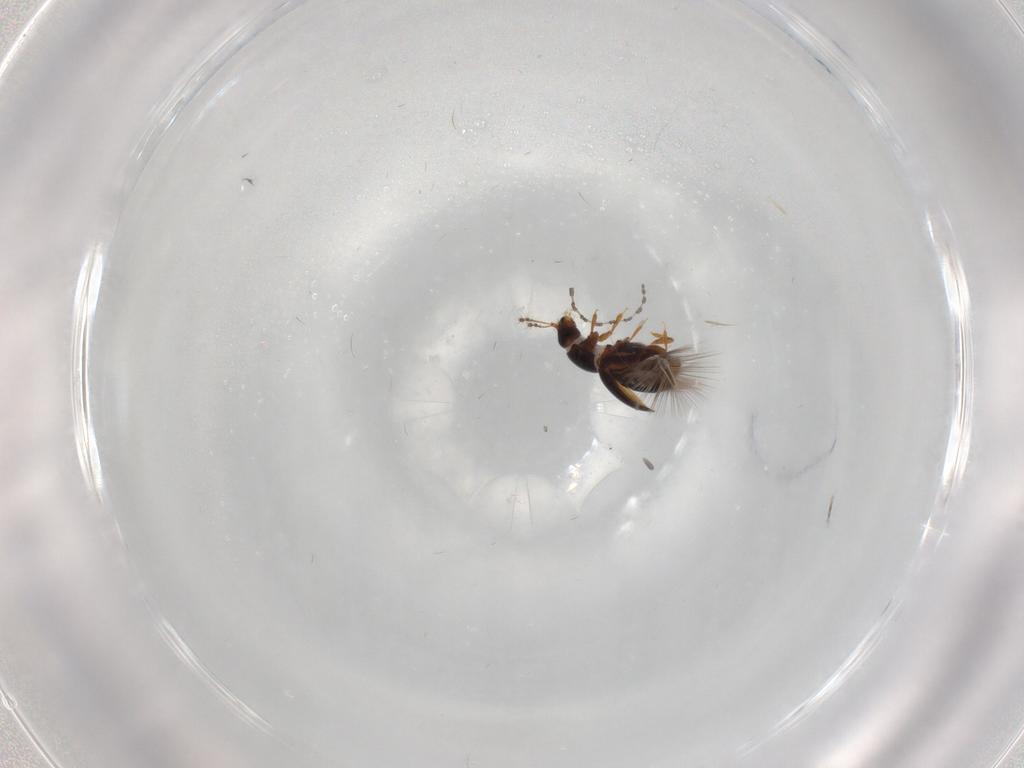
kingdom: Animalia
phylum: Arthropoda
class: Insecta
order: Coleoptera
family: Ptiliidae
